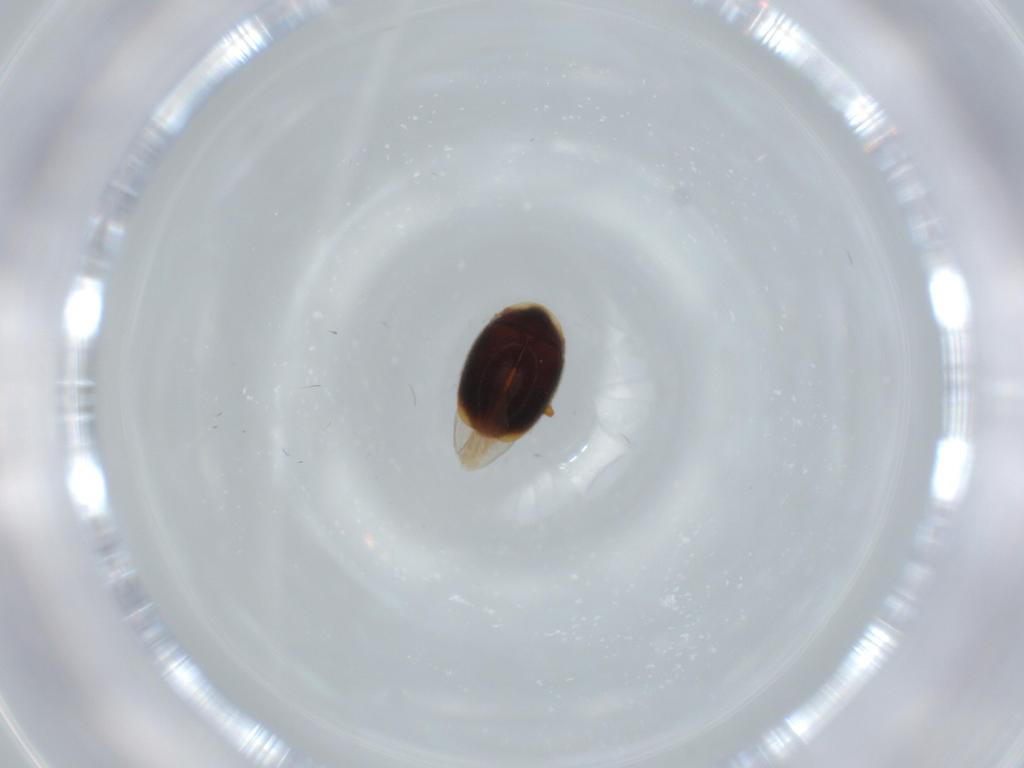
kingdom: Animalia
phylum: Arthropoda
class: Insecta
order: Coleoptera
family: Corylophidae
